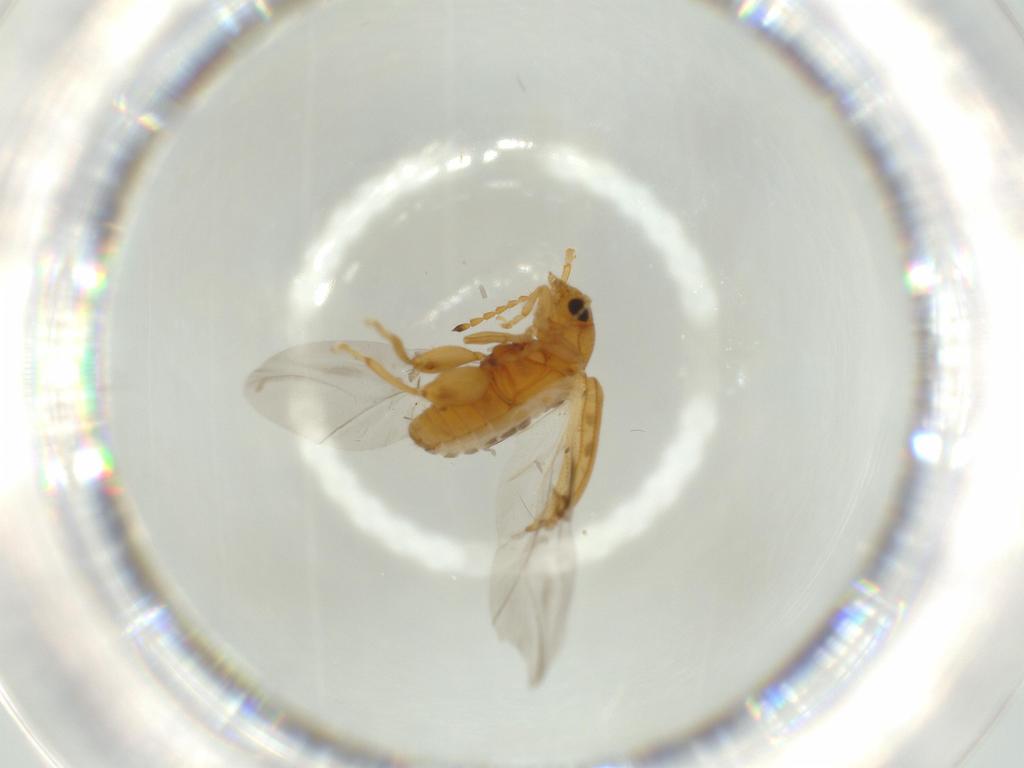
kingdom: Animalia
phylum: Arthropoda
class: Insecta
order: Coleoptera
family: Chrysomelidae
